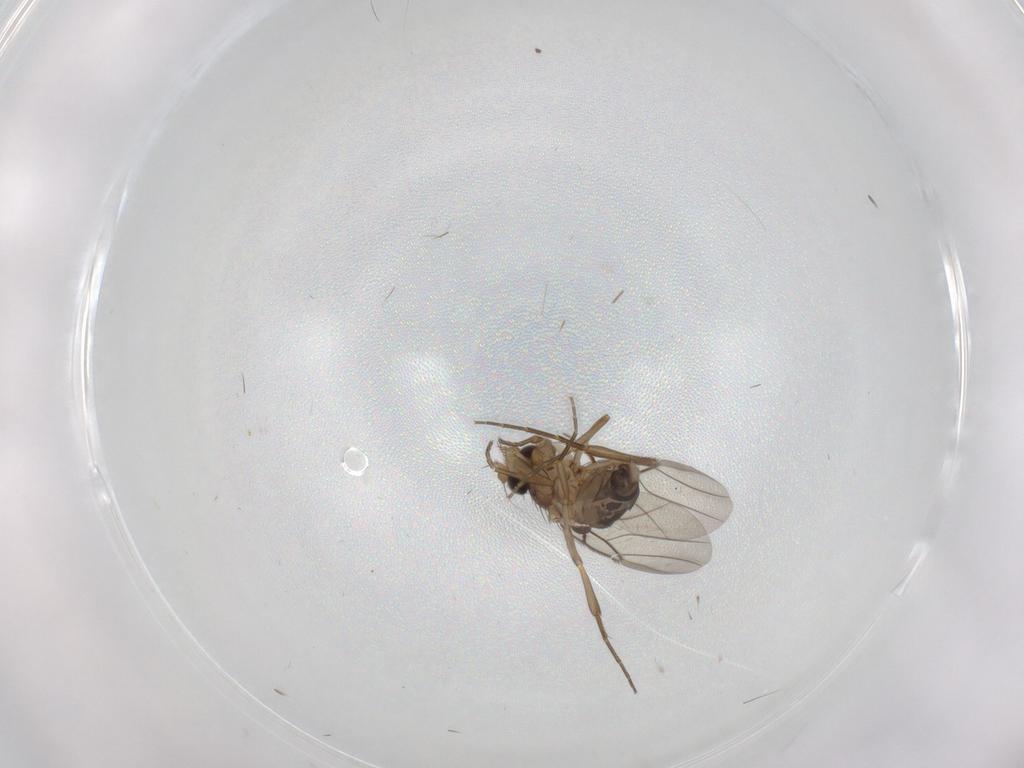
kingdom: Animalia
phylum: Arthropoda
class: Insecta
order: Diptera
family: Phoridae
